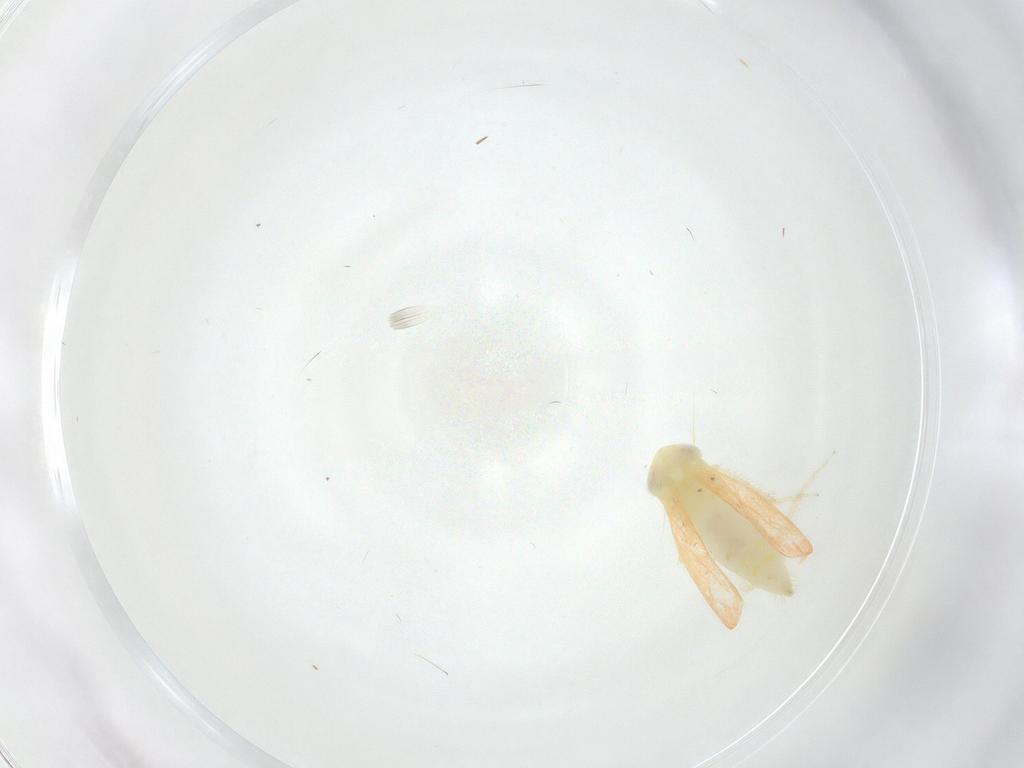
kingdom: Animalia
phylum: Arthropoda
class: Insecta
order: Hemiptera
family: Cicadellidae
